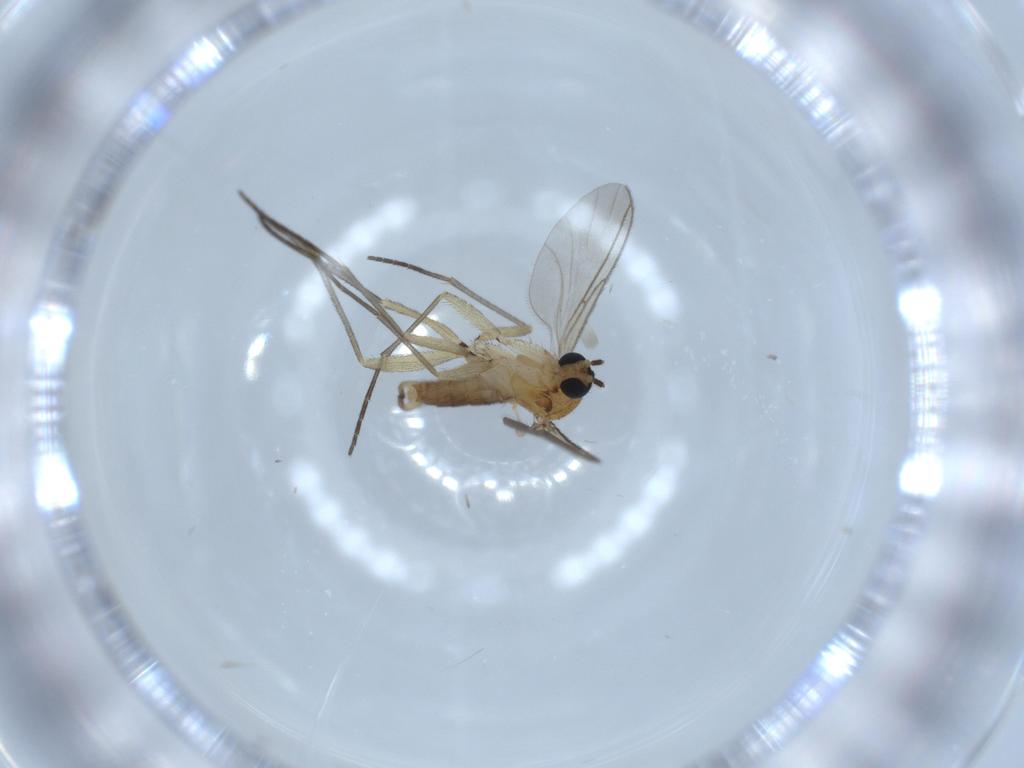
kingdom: Animalia
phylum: Arthropoda
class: Insecta
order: Diptera
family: Sciaridae
